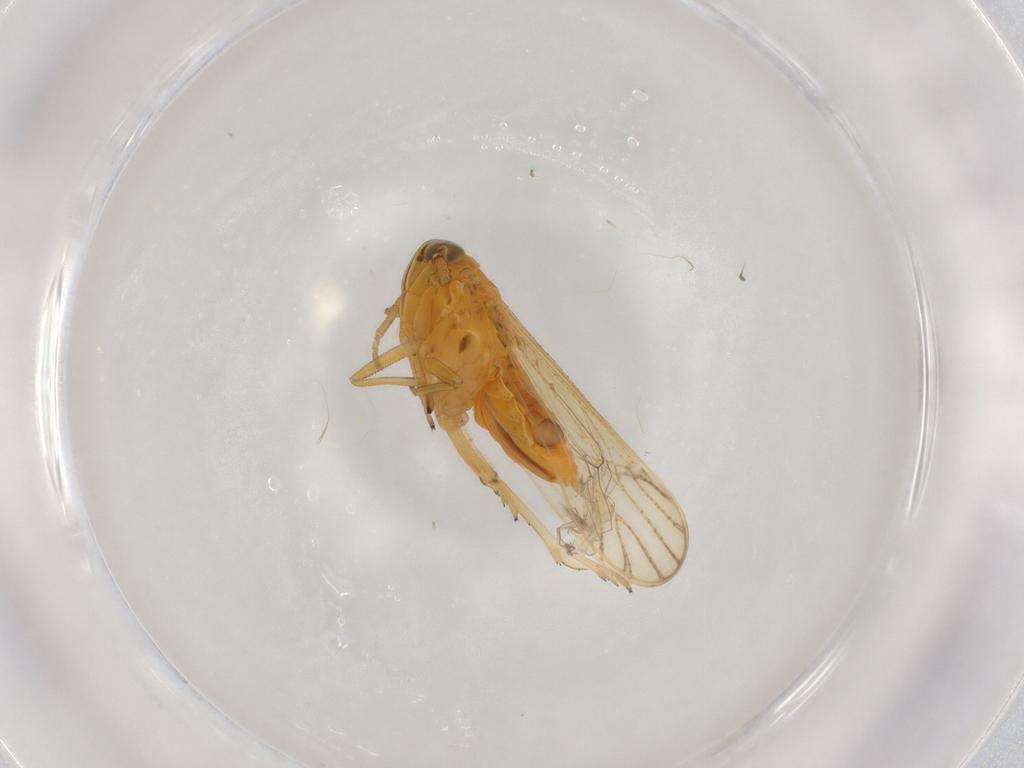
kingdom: Animalia
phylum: Arthropoda
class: Insecta
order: Hemiptera
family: Delphacidae
